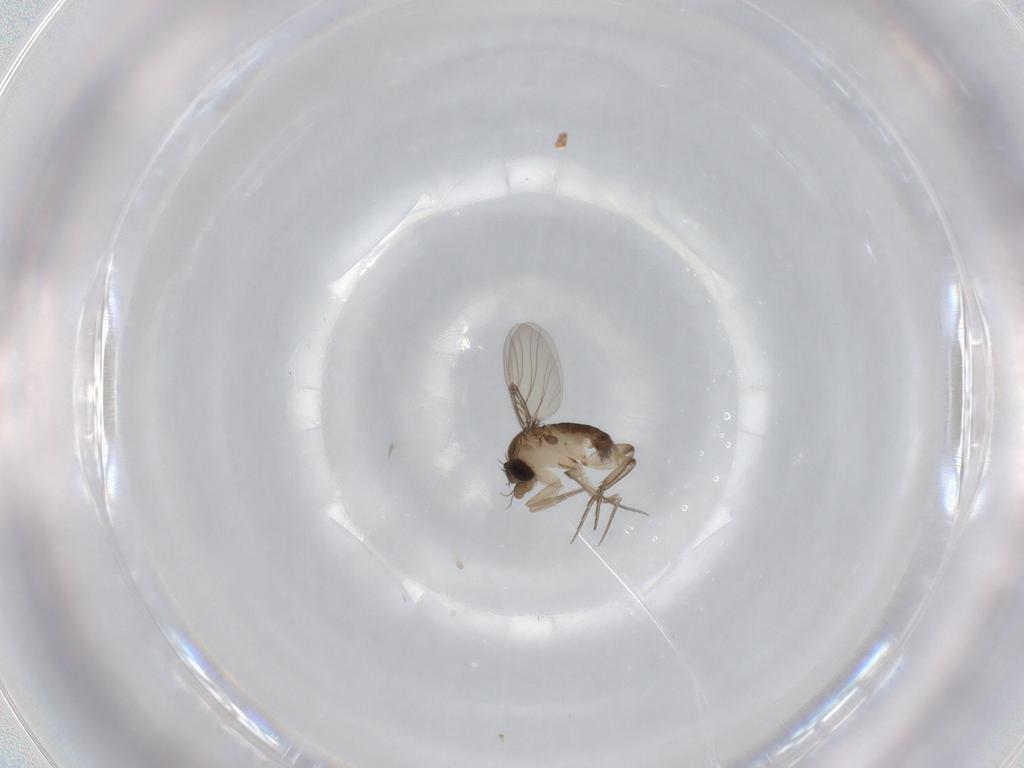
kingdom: Animalia
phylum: Arthropoda
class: Insecta
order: Diptera
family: Phoridae
